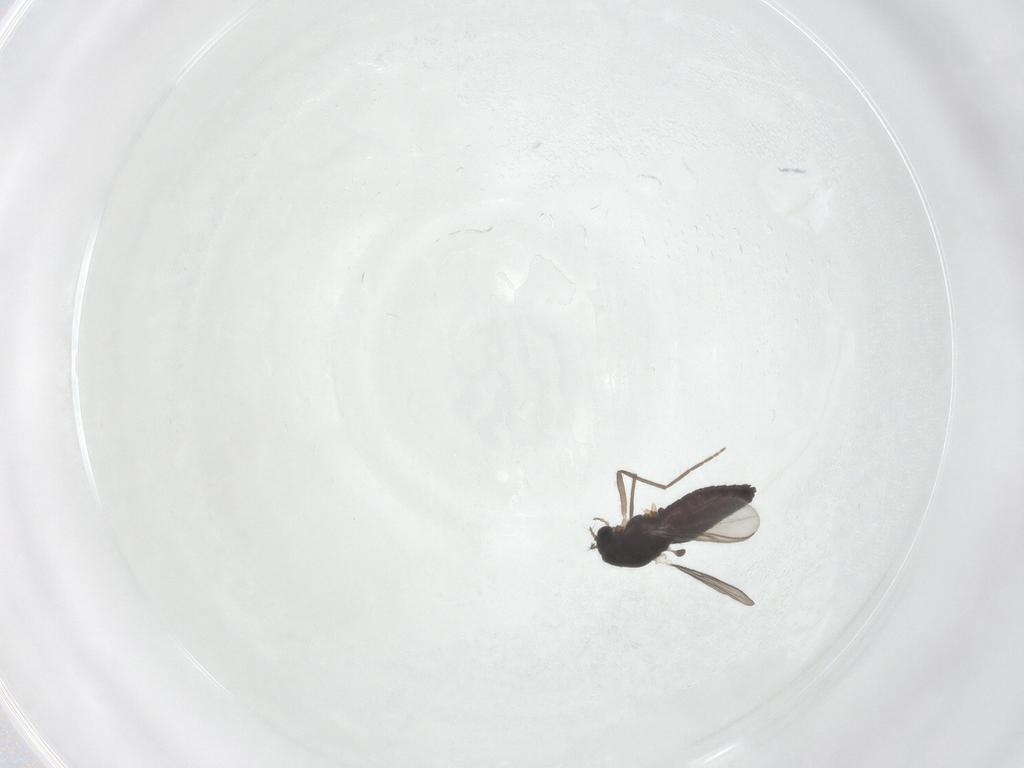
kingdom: Animalia
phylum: Arthropoda
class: Insecta
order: Diptera
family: Chironomidae
